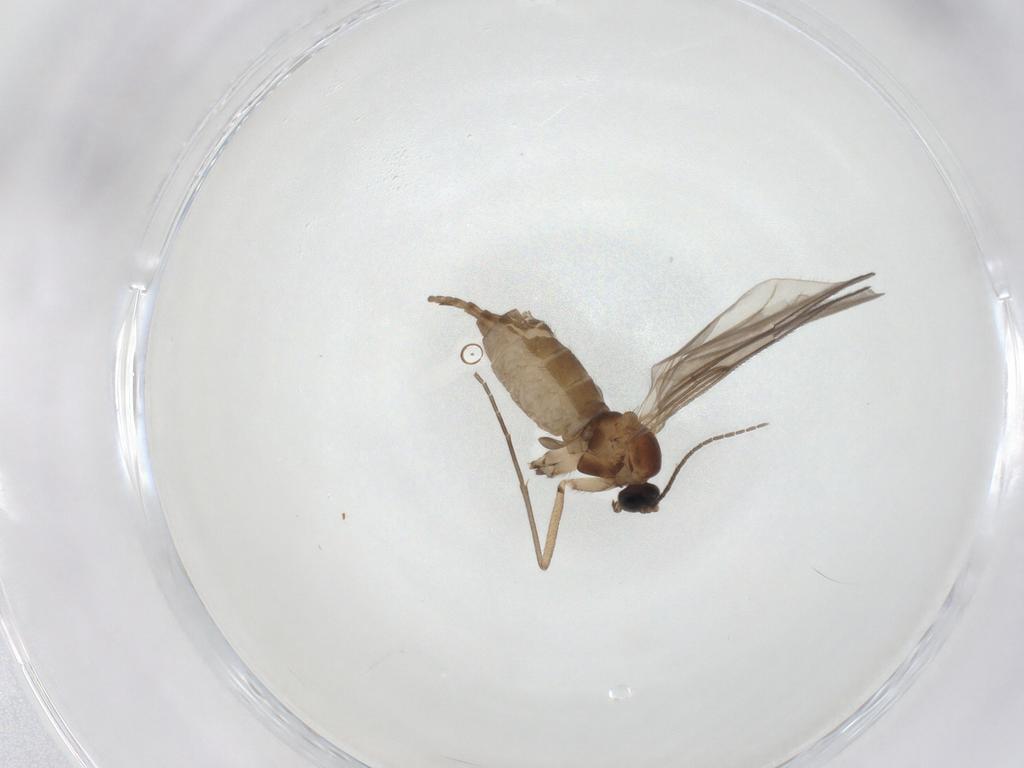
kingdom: Animalia
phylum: Arthropoda
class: Insecta
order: Diptera
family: Sciaridae
